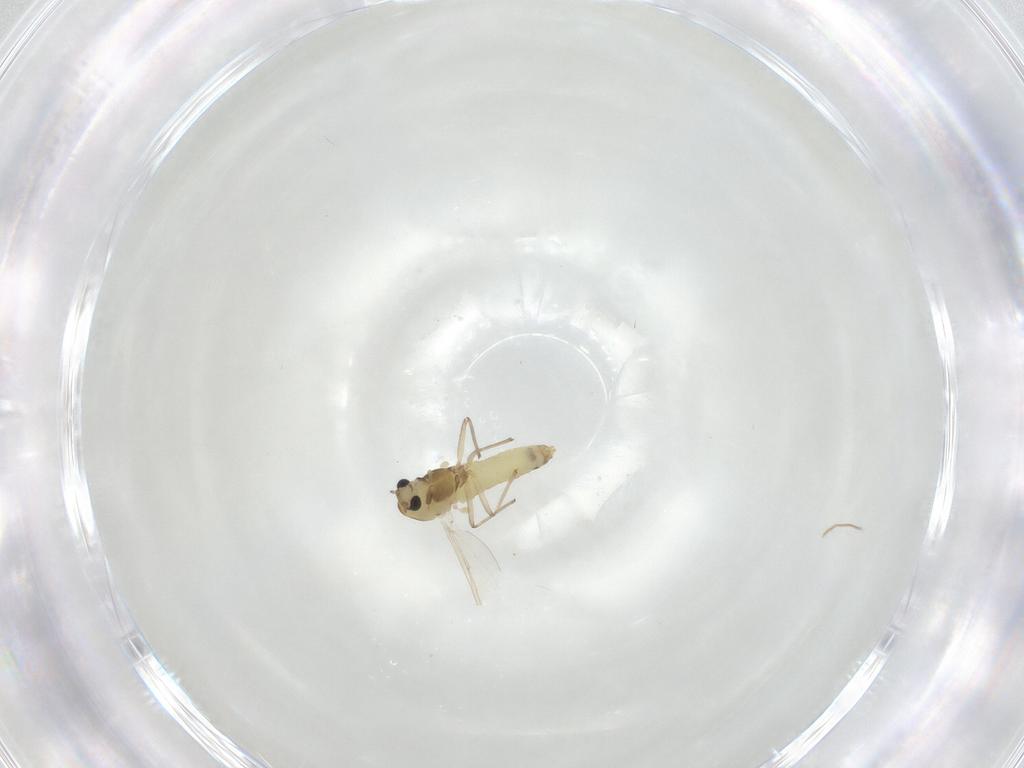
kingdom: Animalia
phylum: Arthropoda
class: Insecta
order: Diptera
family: Chironomidae
